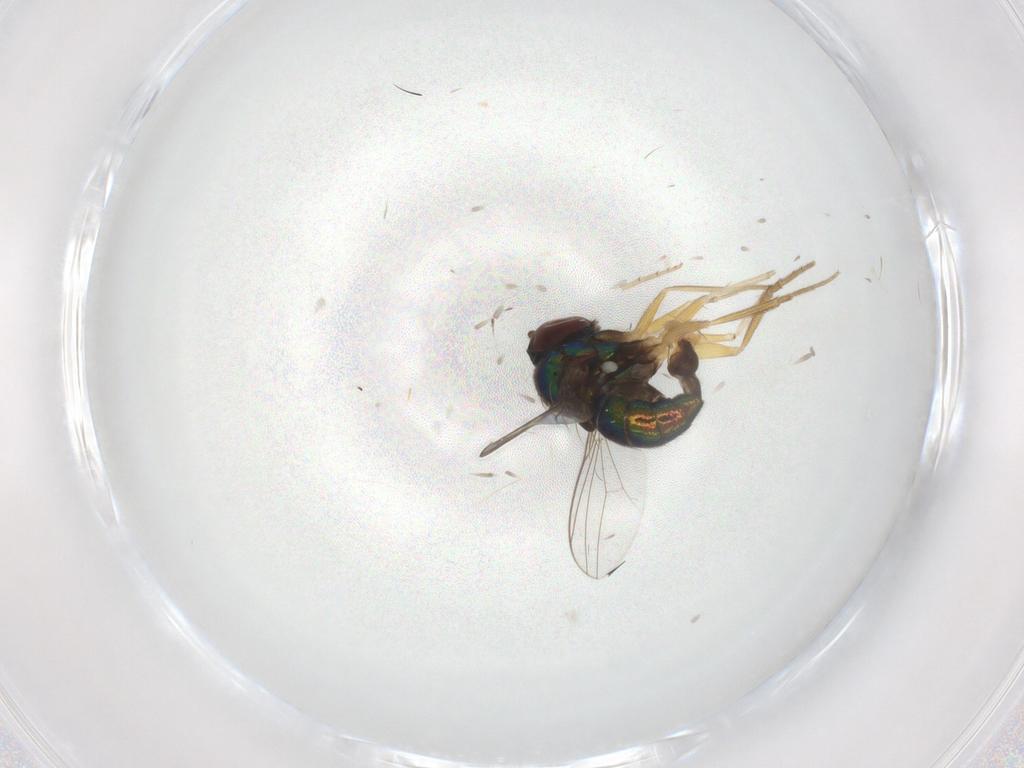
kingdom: Animalia
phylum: Arthropoda
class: Insecta
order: Diptera
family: Dolichopodidae
